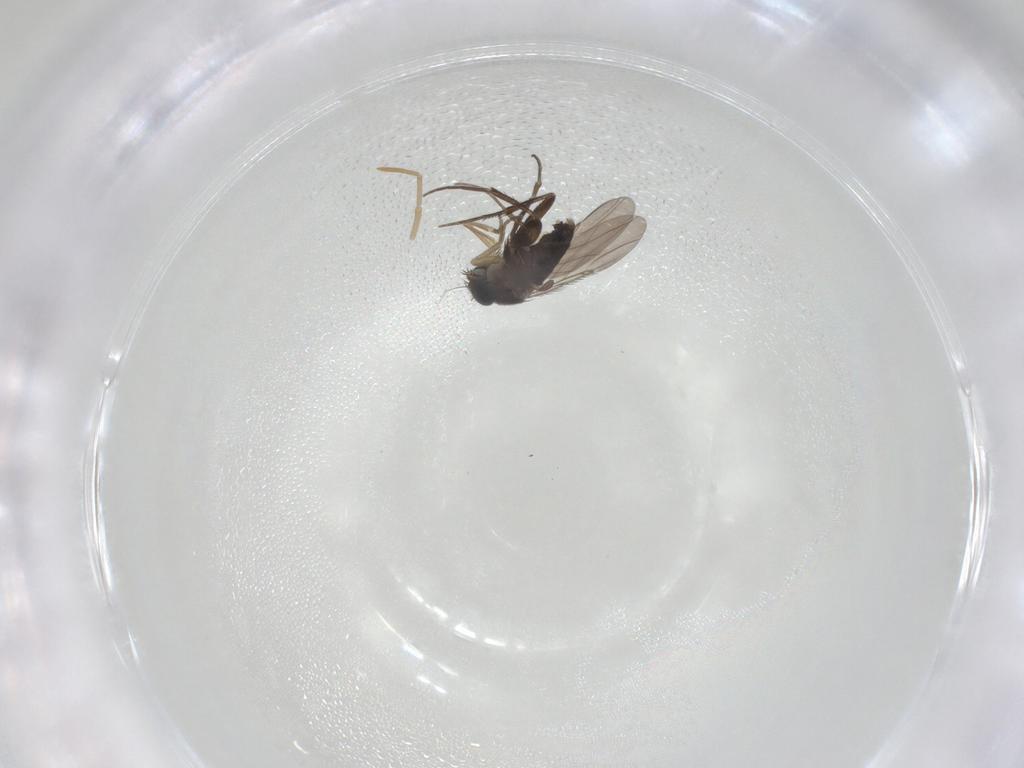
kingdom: Animalia
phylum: Arthropoda
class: Insecta
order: Diptera
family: Phoridae
